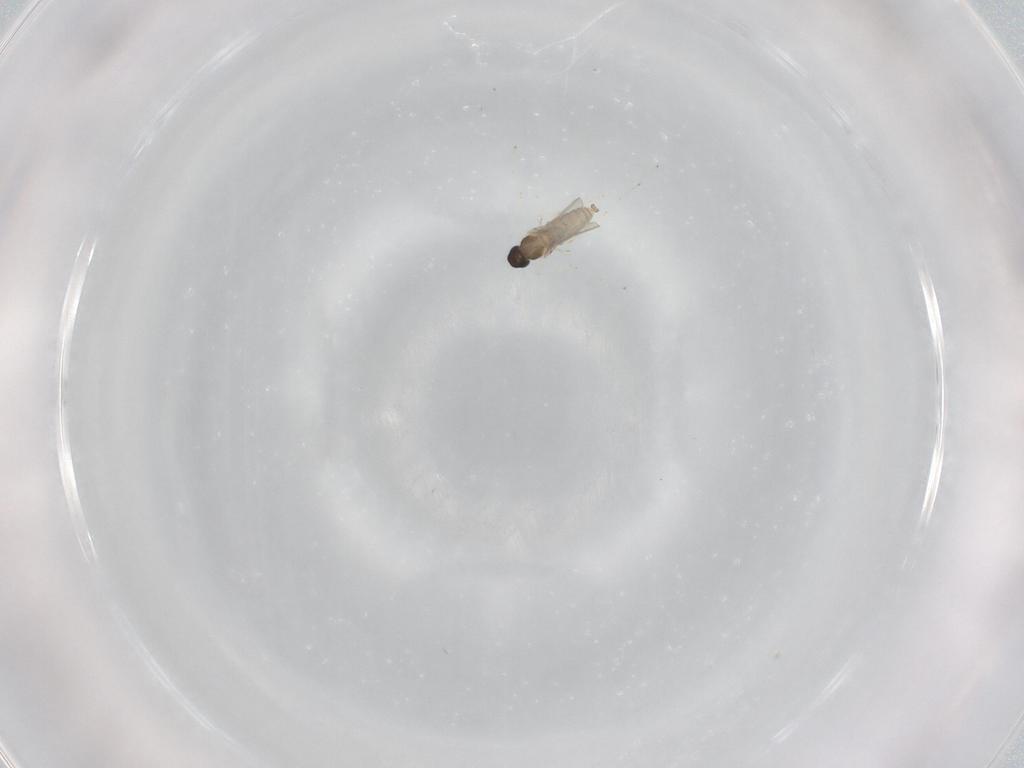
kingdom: Animalia
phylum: Arthropoda
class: Insecta
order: Diptera
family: Cecidomyiidae
